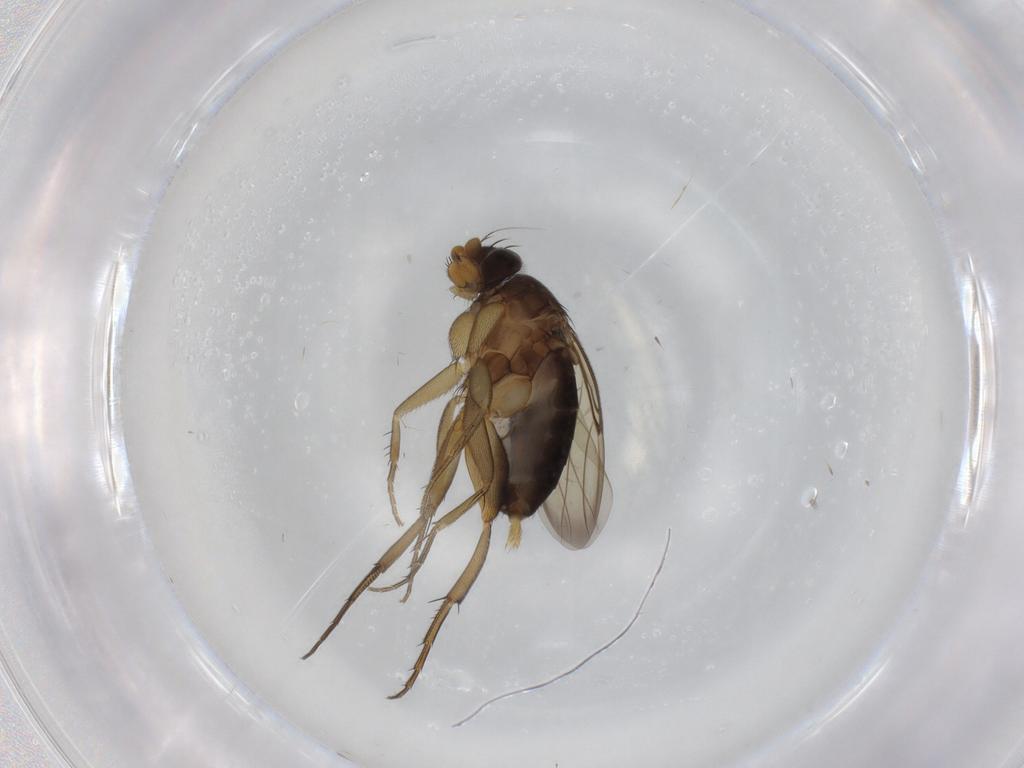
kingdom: Animalia
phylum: Arthropoda
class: Insecta
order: Diptera
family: Phoridae
